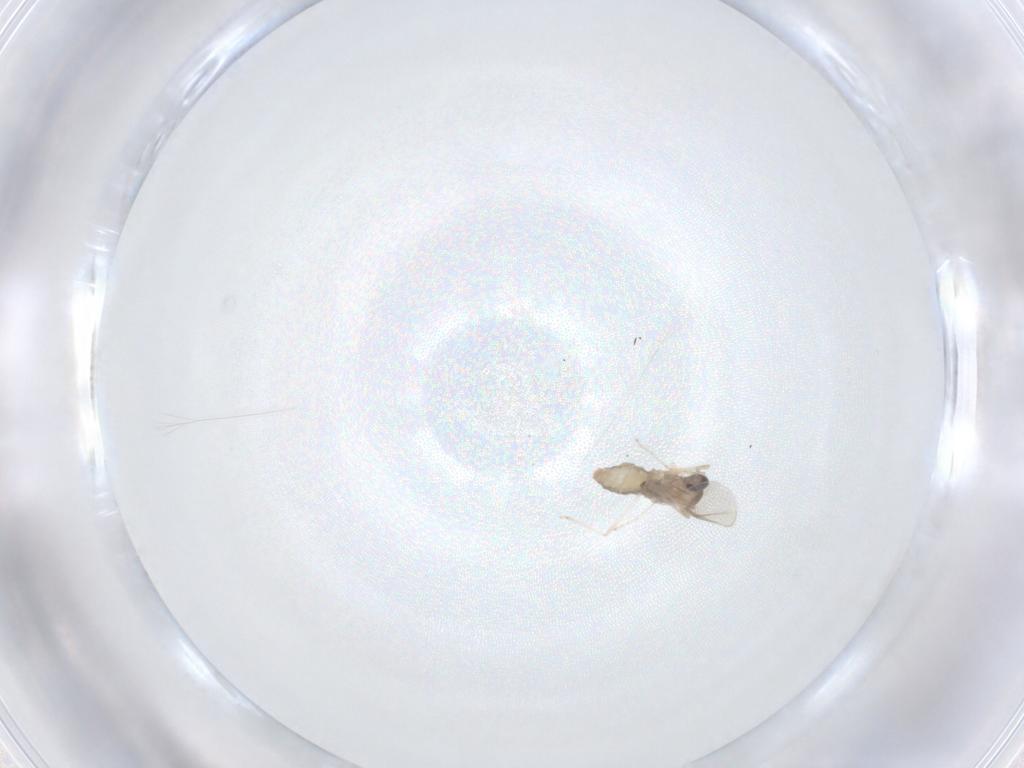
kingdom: Animalia
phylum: Arthropoda
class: Insecta
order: Diptera
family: Cecidomyiidae
